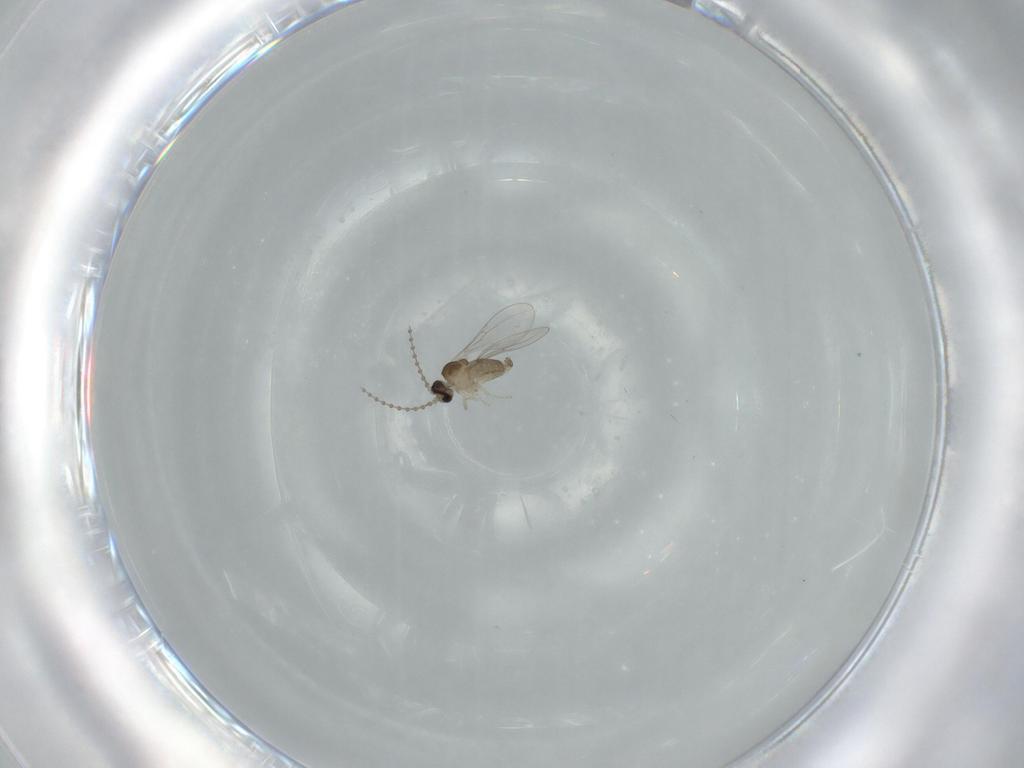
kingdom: Animalia
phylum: Arthropoda
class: Insecta
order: Diptera
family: Cecidomyiidae
